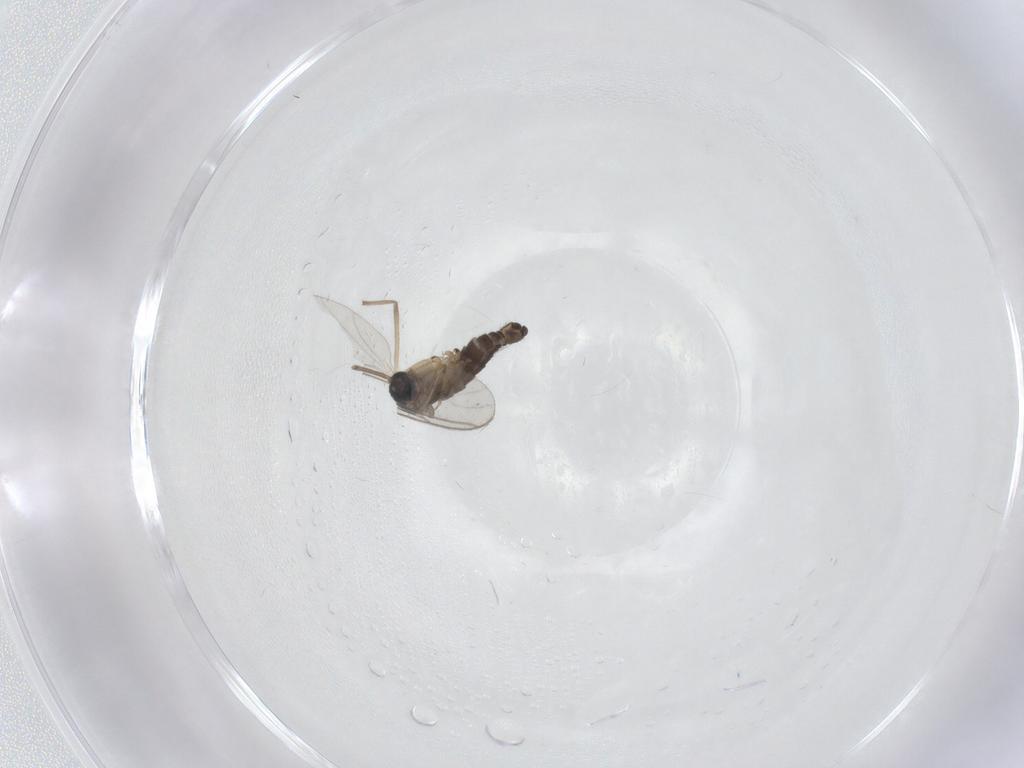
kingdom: Animalia
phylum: Arthropoda
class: Insecta
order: Diptera
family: Sciaridae
